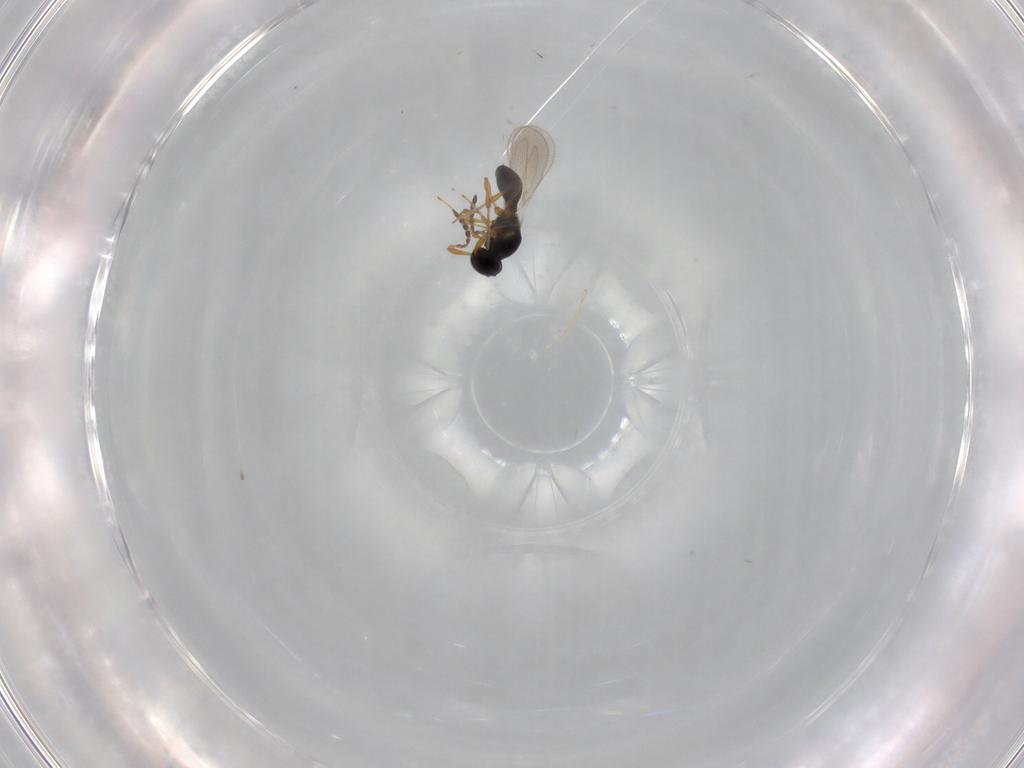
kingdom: Animalia
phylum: Arthropoda
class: Insecta
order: Hymenoptera
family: Platygastridae
